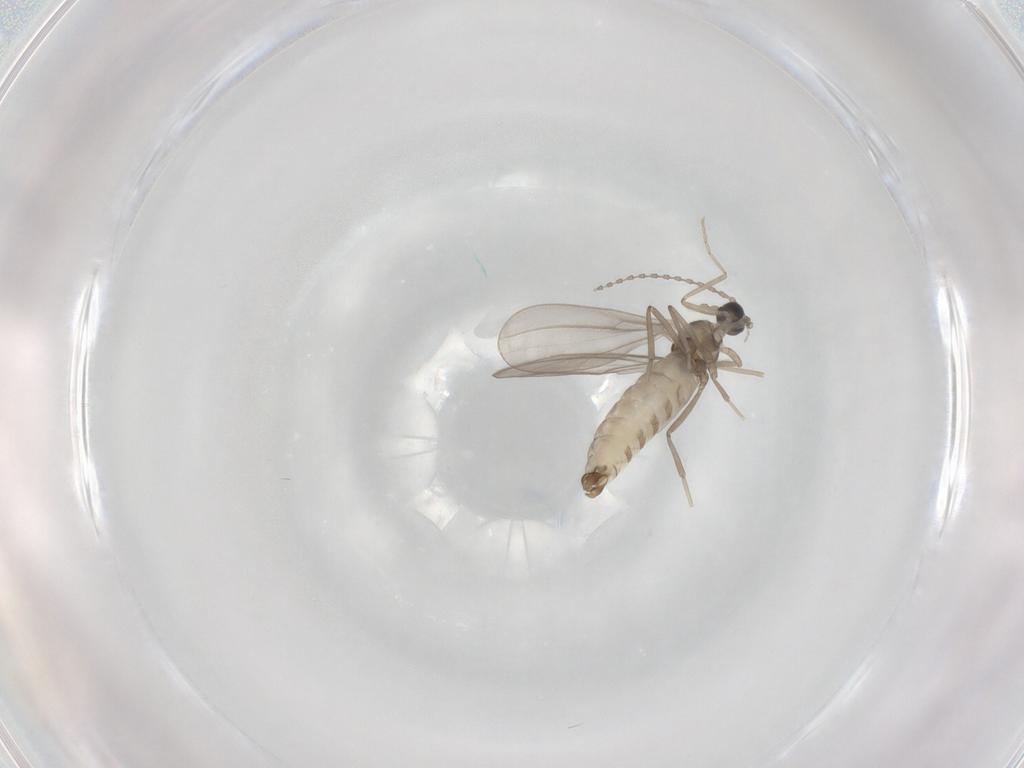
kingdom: Animalia
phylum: Arthropoda
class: Insecta
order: Diptera
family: Cecidomyiidae
